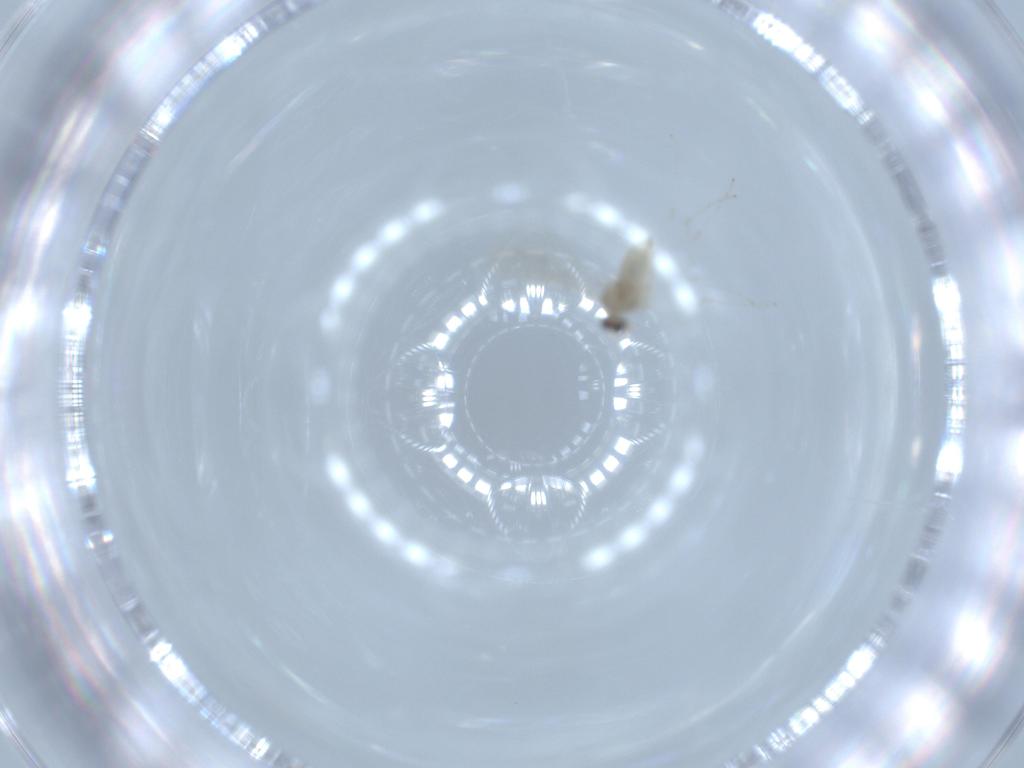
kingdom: Animalia
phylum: Arthropoda
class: Insecta
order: Diptera
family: Cecidomyiidae
